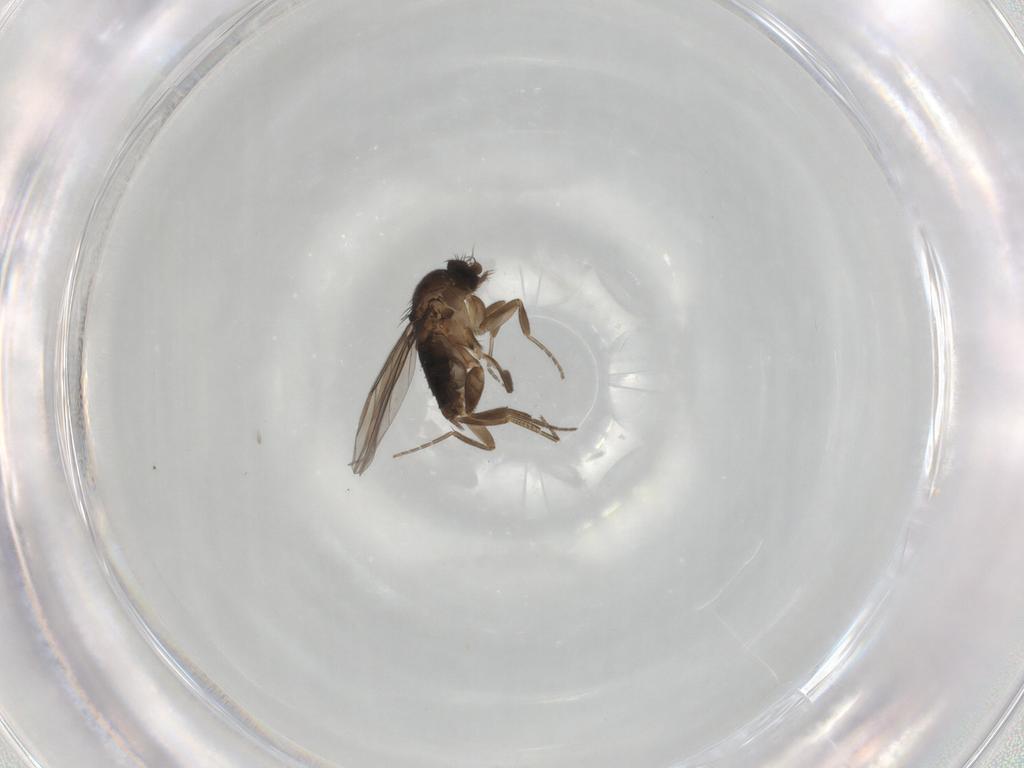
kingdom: Animalia
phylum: Arthropoda
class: Insecta
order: Diptera
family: Phoridae
